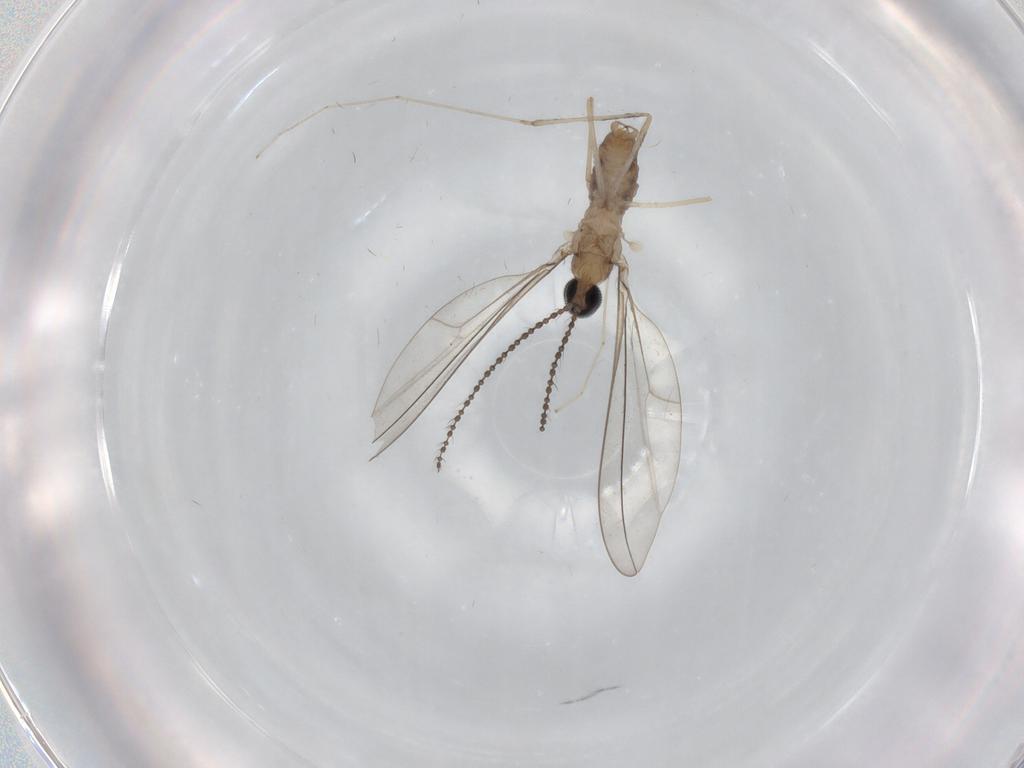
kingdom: Animalia
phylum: Arthropoda
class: Insecta
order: Diptera
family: Cecidomyiidae
